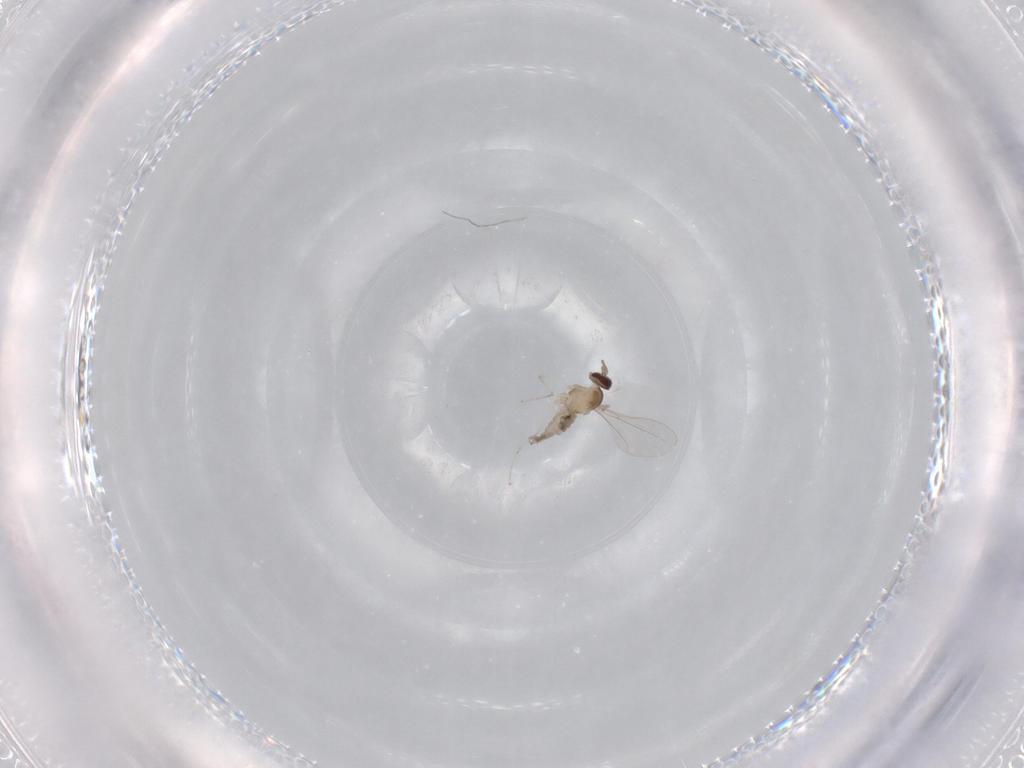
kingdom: Animalia
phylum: Arthropoda
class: Insecta
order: Diptera
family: Cecidomyiidae
